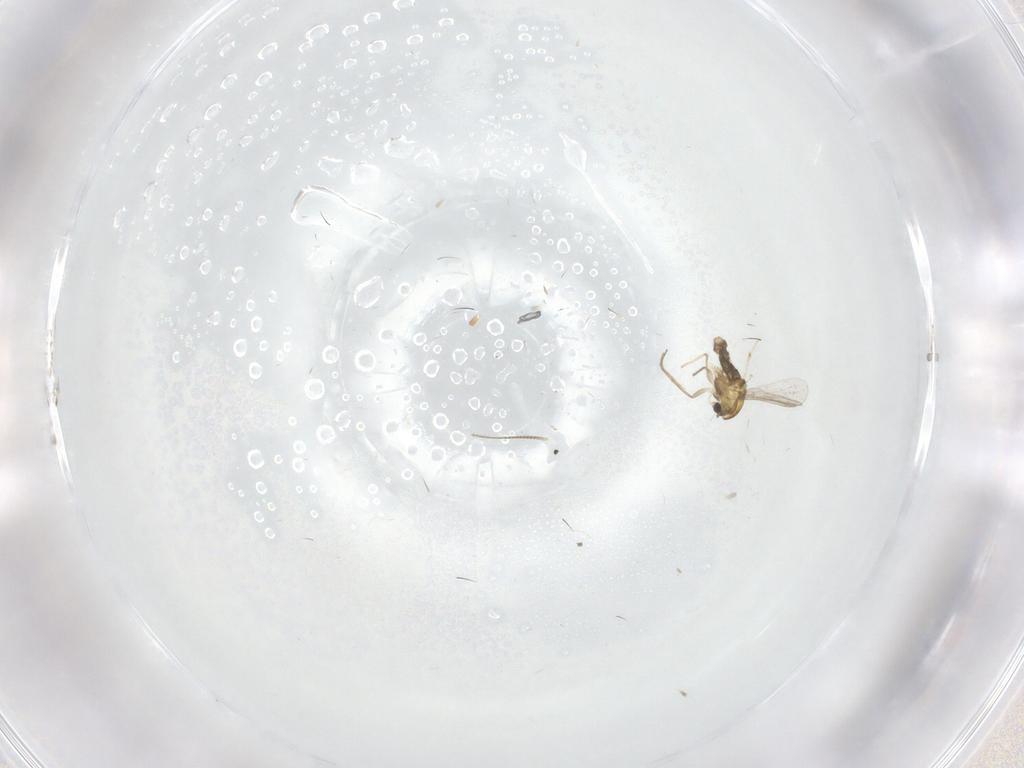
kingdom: Animalia
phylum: Arthropoda
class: Insecta
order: Diptera
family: Chironomidae
